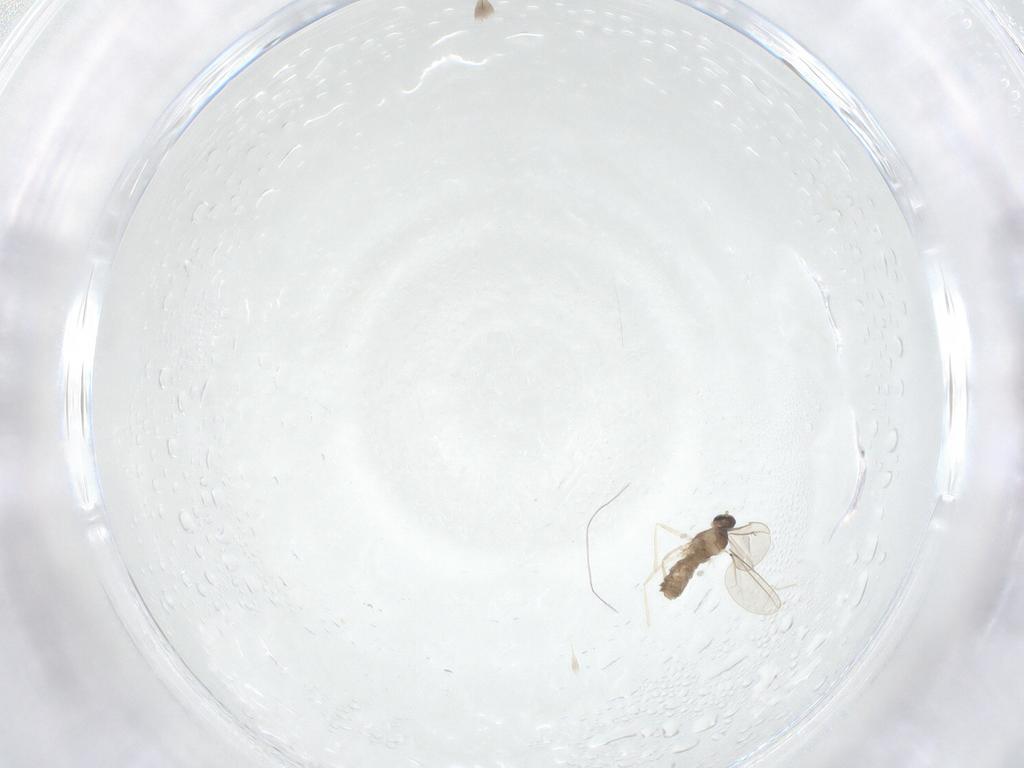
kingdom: Animalia
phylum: Arthropoda
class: Insecta
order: Diptera
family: Cecidomyiidae
